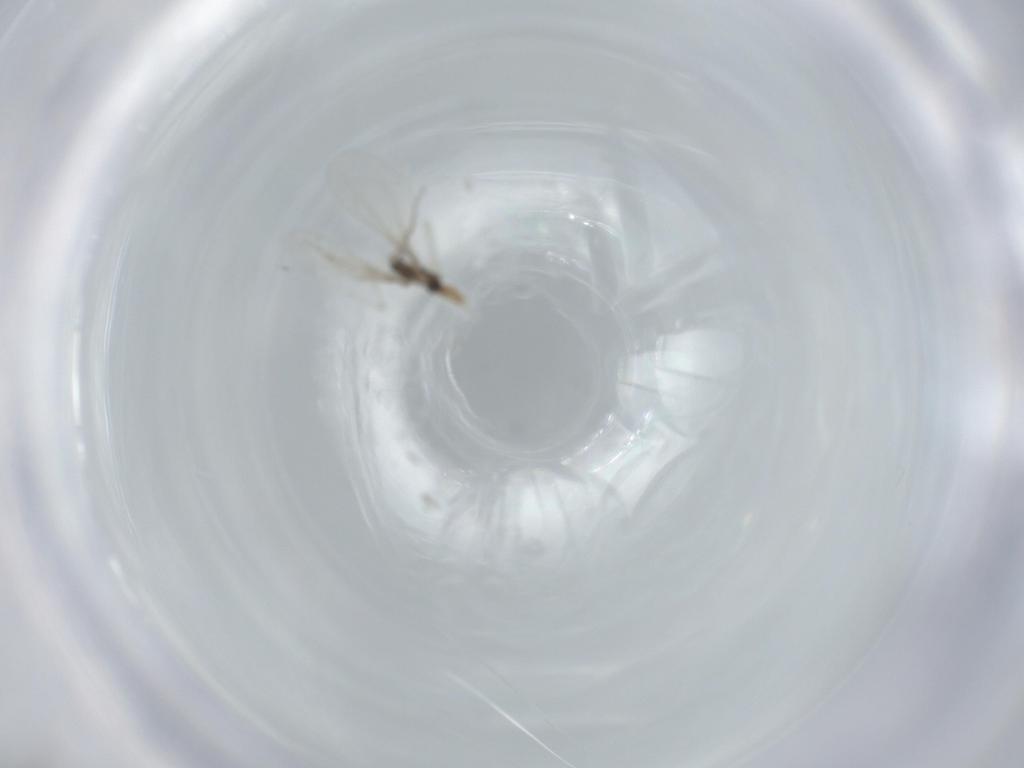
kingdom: Animalia
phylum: Arthropoda
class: Insecta
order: Diptera
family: Cecidomyiidae
